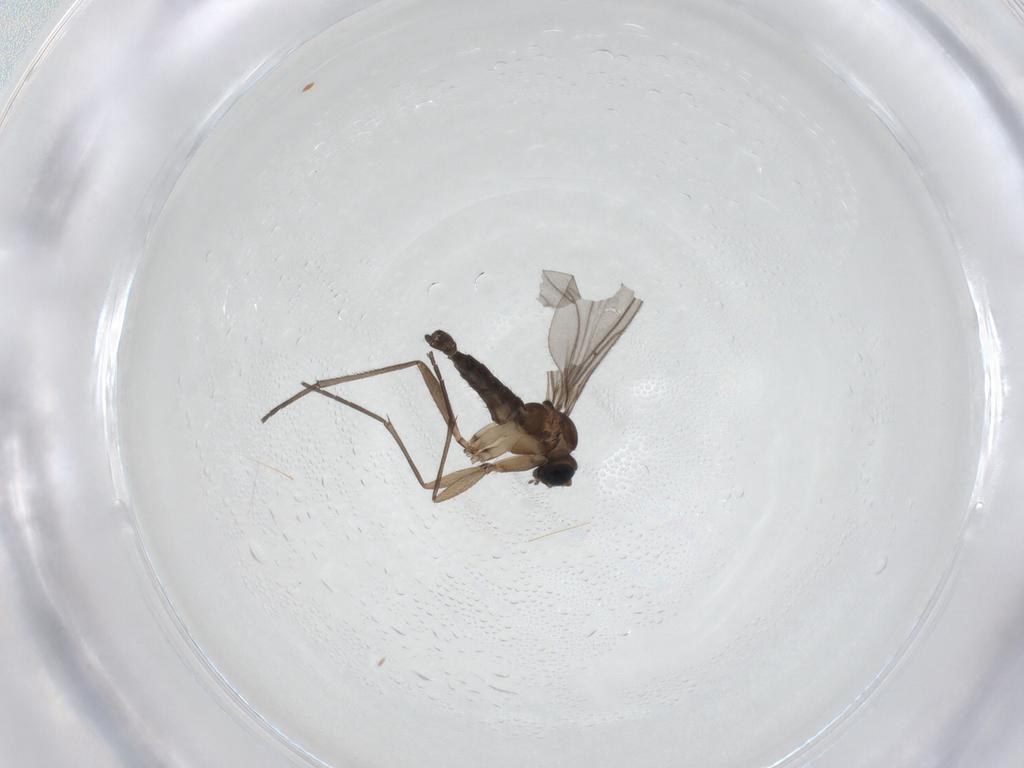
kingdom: Animalia
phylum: Arthropoda
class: Insecta
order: Diptera
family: Sciaridae
